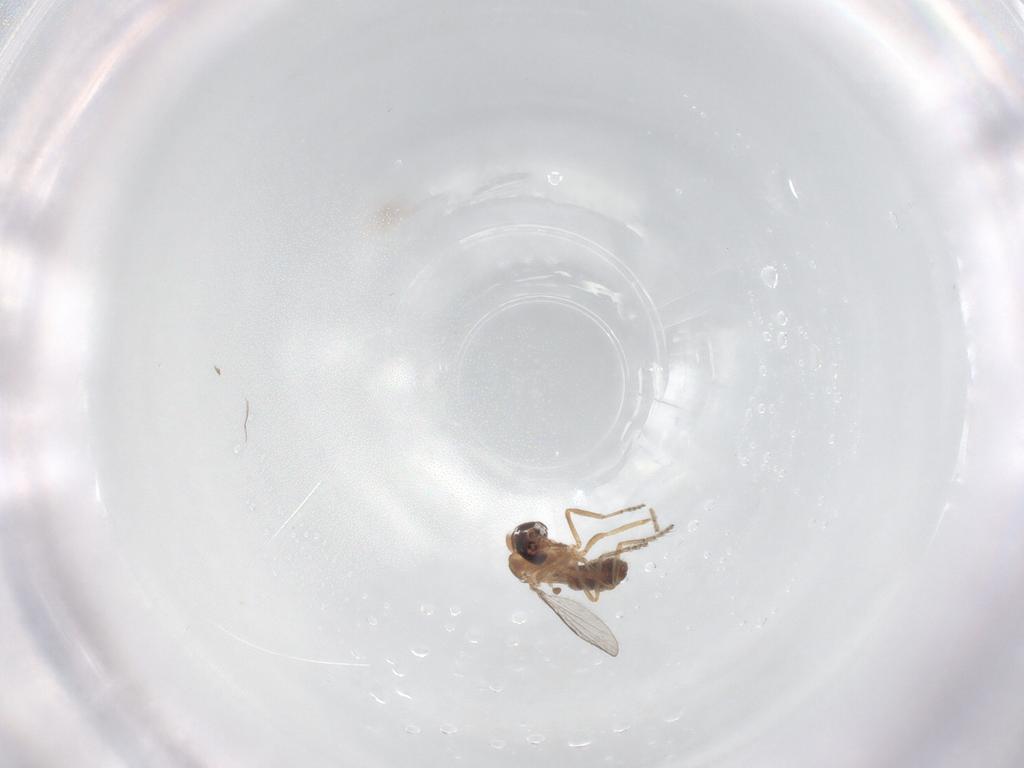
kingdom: Animalia
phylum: Arthropoda
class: Insecta
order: Diptera
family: Ceratopogonidae
